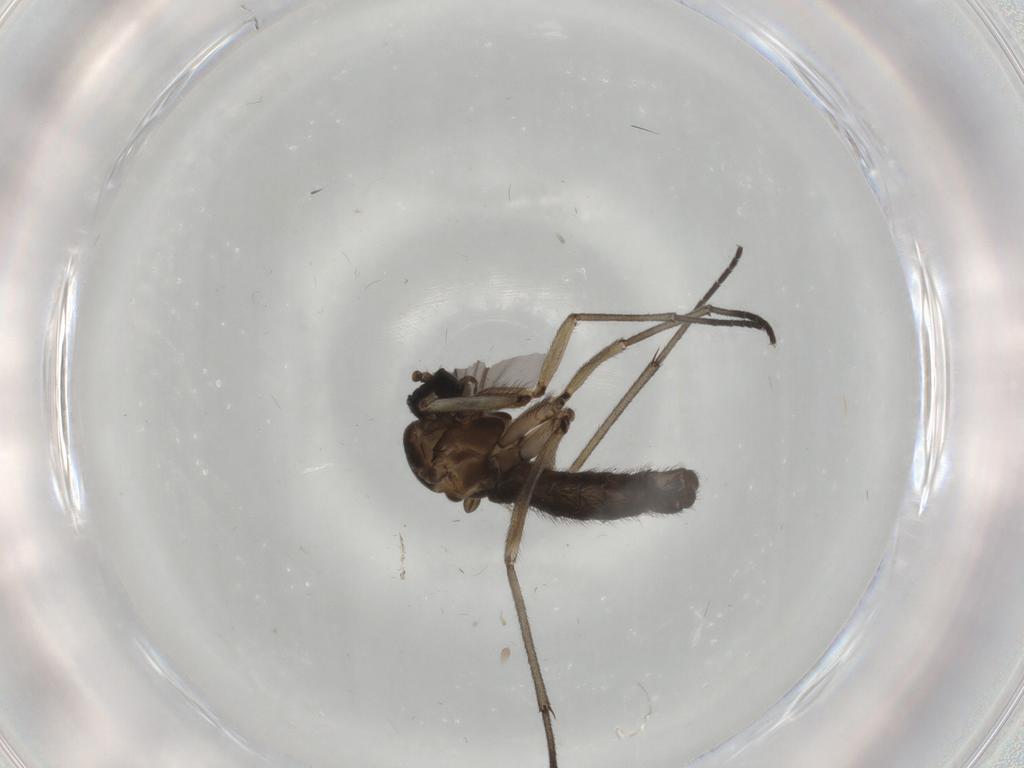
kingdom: Animalia
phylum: Arthropoda
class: Insecta
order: Diptera
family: Sciaridae
